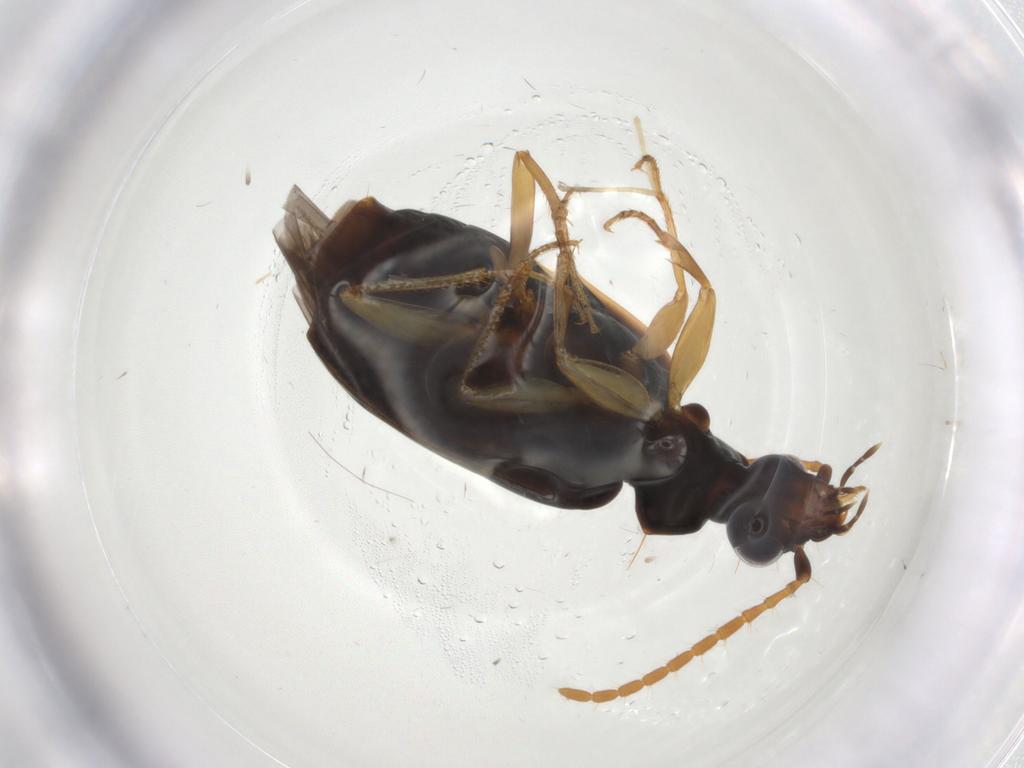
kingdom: Animalia
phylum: Arthropoda
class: Insecta
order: Coleoptera
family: Carabidae
